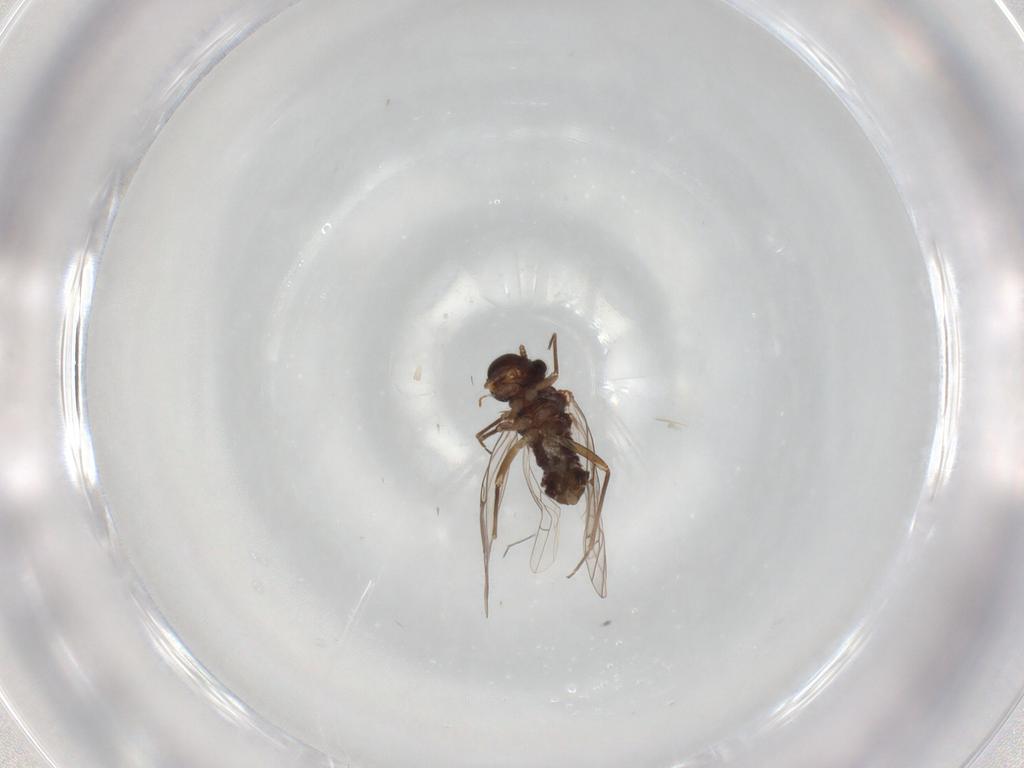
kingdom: Animalia
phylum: Arthropoda
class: Insecta
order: Psocodea
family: Lachesillidae
